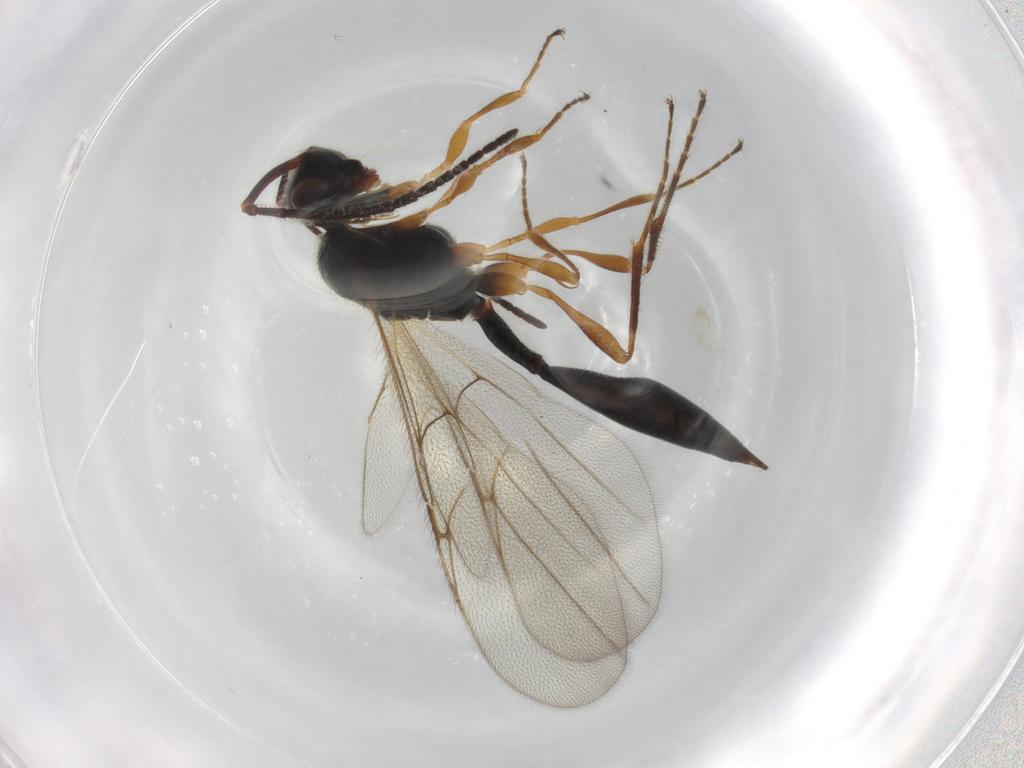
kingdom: Animalia
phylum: Arthropoda
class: Insecta
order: Hymenoptera
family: Diapriidae
